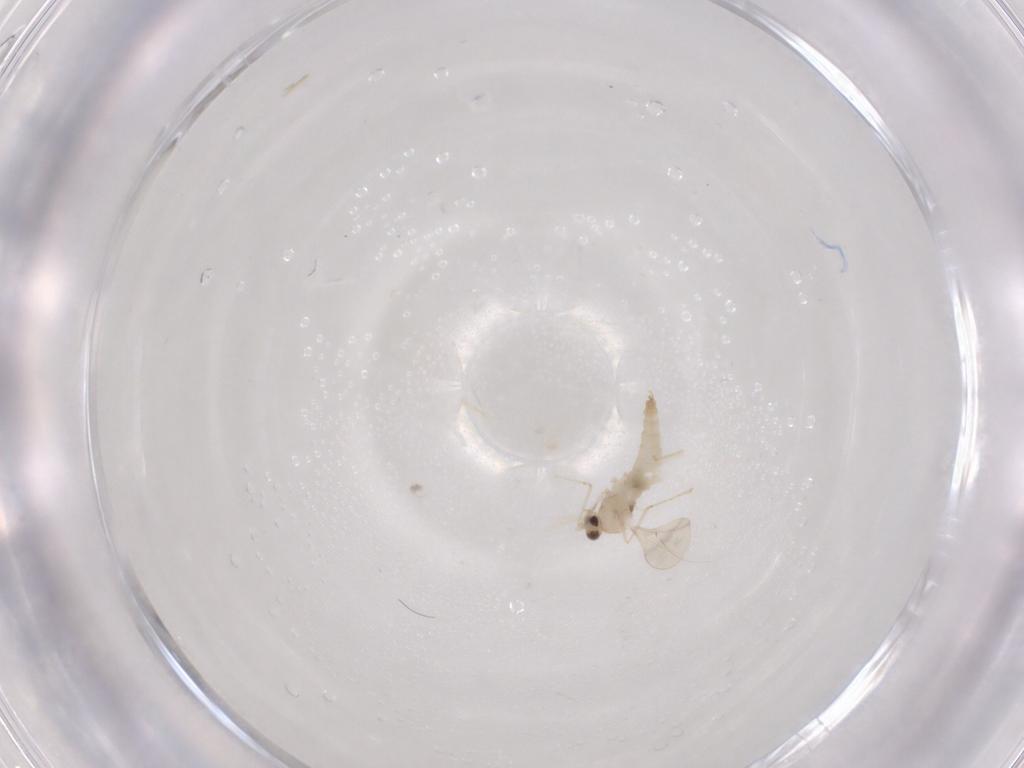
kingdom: Animalia
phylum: Arthropoda
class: Insecta
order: Diptera
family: Cecidomyiidae
